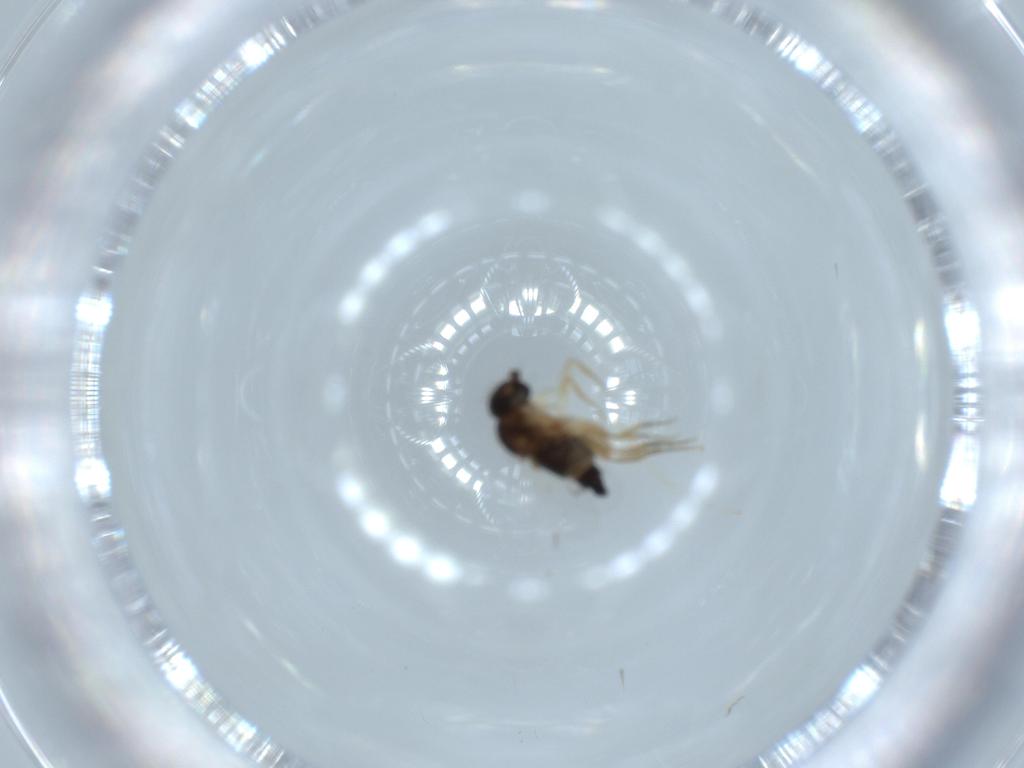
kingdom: Animalia
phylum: Arthropoda
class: Insecta
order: Diptera
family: Cecidomyiidae
